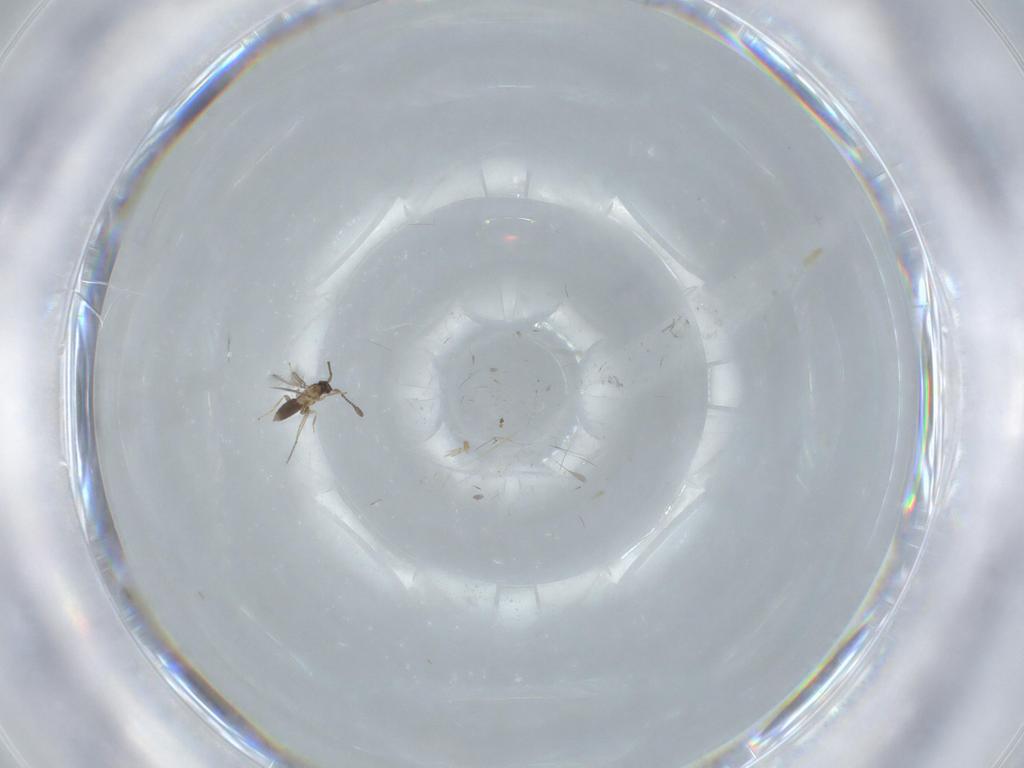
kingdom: Animalia
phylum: Arthropoda
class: Insecta
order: Hymenoptera
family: Mymaridae
